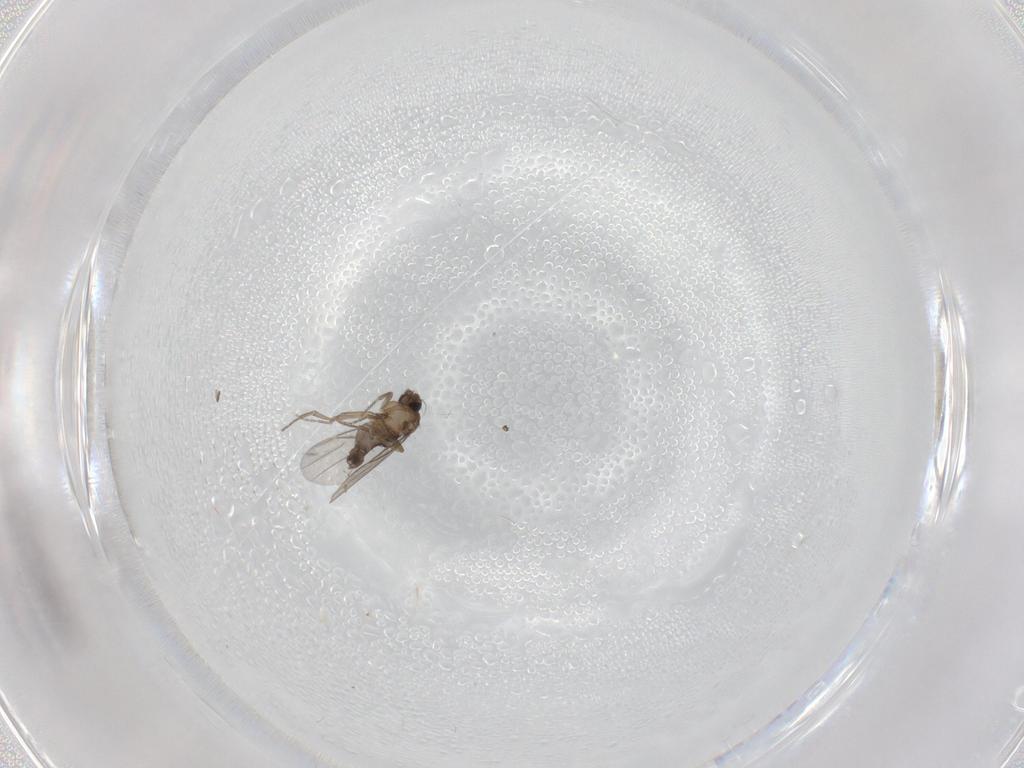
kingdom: Animalia
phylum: Arthropoda
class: Insecta
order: Diptera
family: Phoridae
